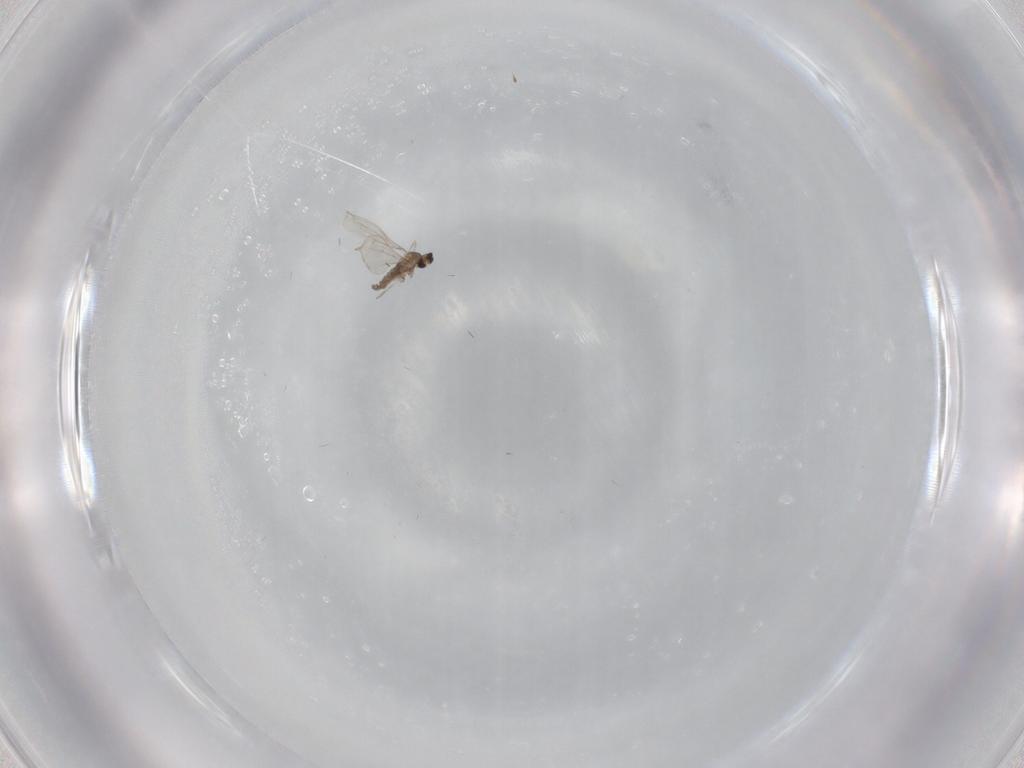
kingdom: Animalia
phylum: Arthropoda
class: Insecta
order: Diptera
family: Cecidomyiidae
